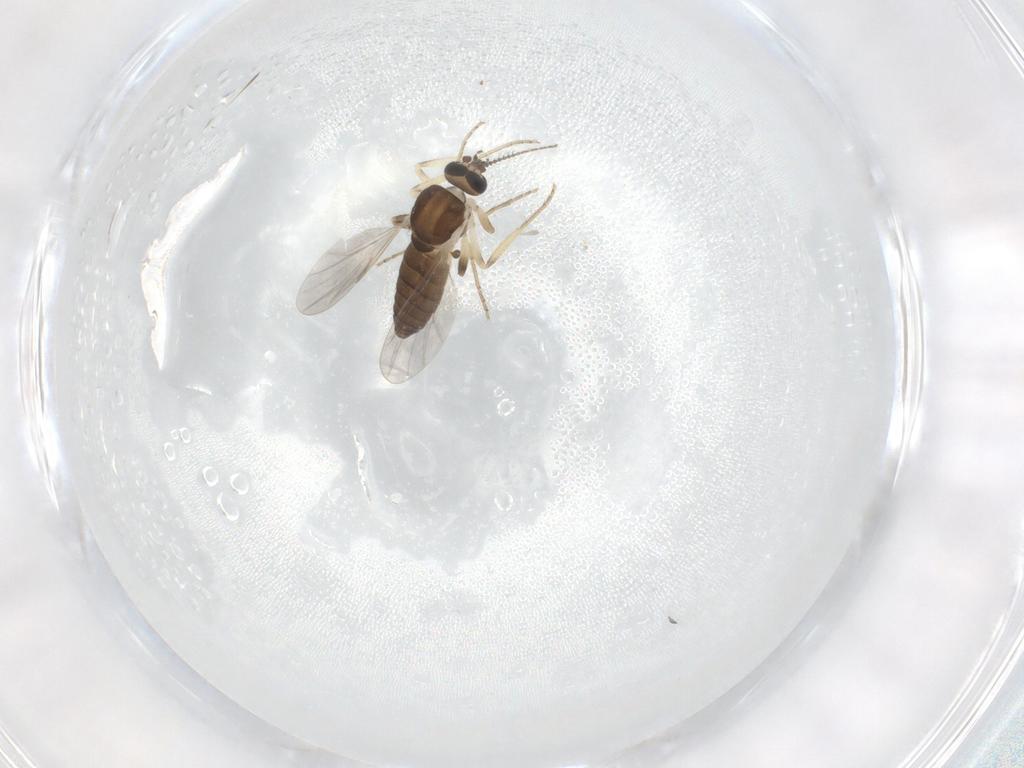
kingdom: Animalia
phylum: Arthropoda
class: Insecta
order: Diptera
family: Ceratopogonidae
